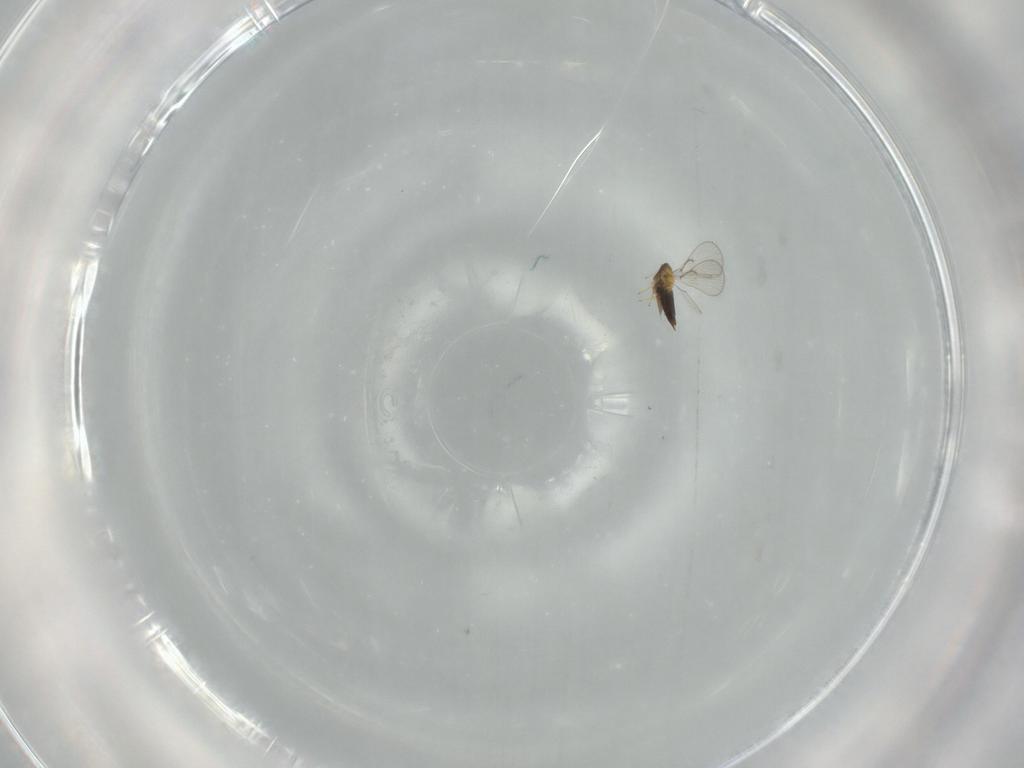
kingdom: Animalia
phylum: Arthropoda
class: Insecta
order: Hymenoptera
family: Trichogrammatidae
